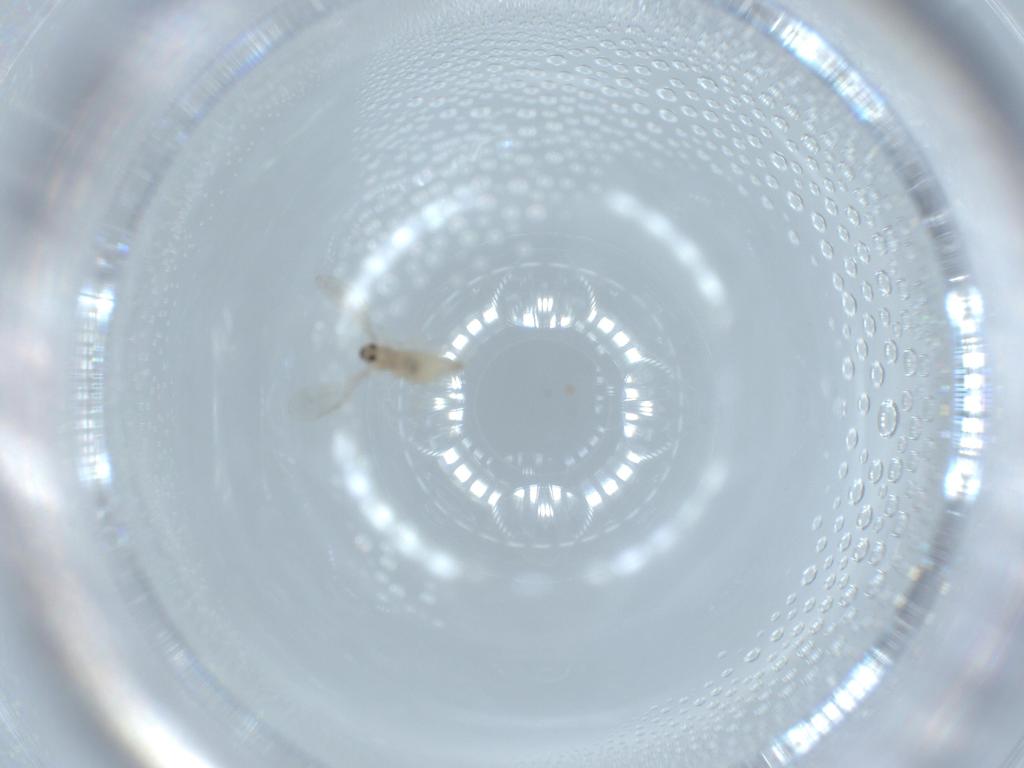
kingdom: Animalia
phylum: Arthropoda
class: Insecta
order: Diptera
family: Cecidomyiidae
